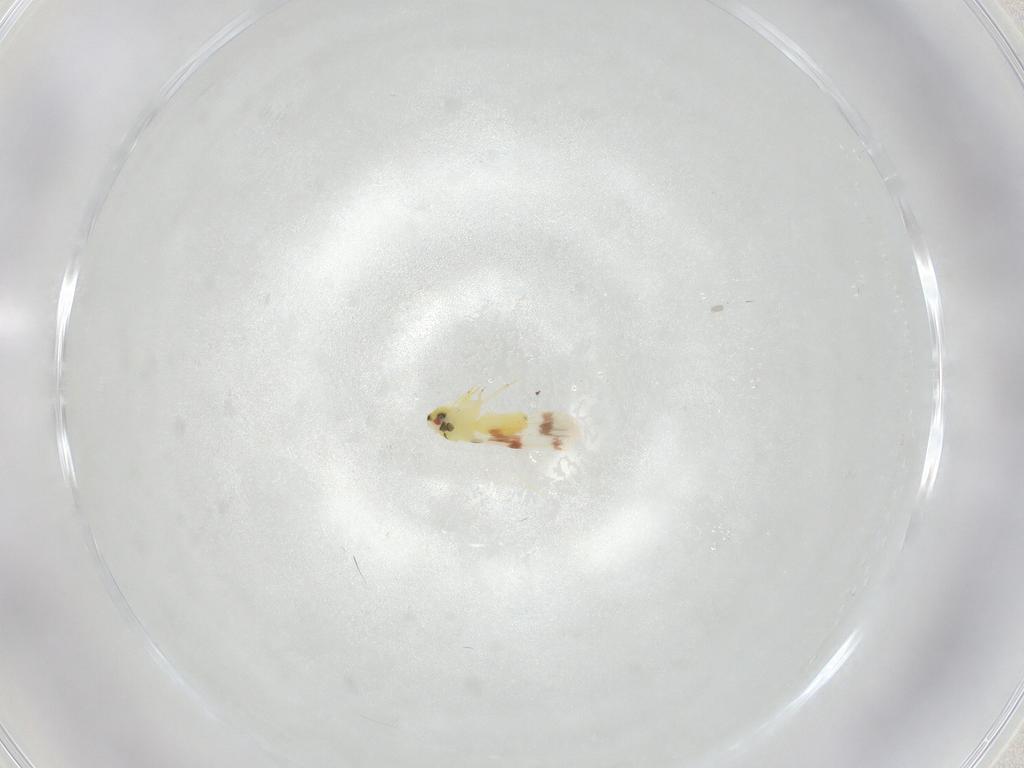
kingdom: Animalia
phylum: Arthropoda
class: Insecta
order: Hemiptera
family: Aleyrodidae
